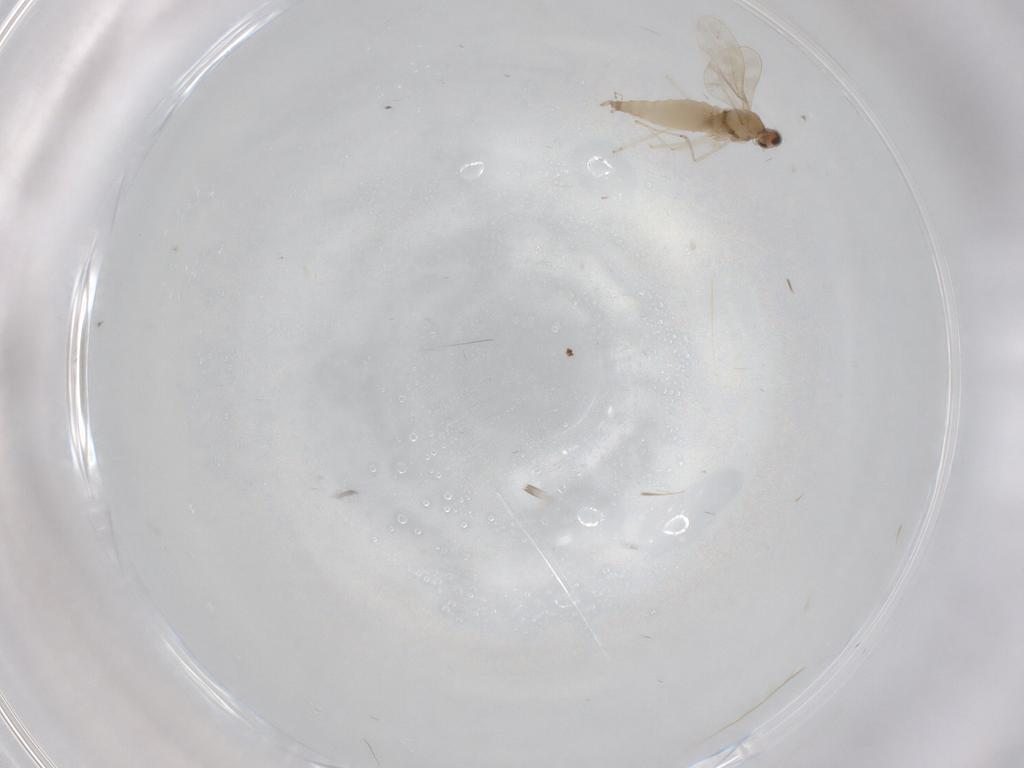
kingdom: Animalia
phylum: Arthropoda
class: Insecta
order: Diptera
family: Cecidomyiidae
